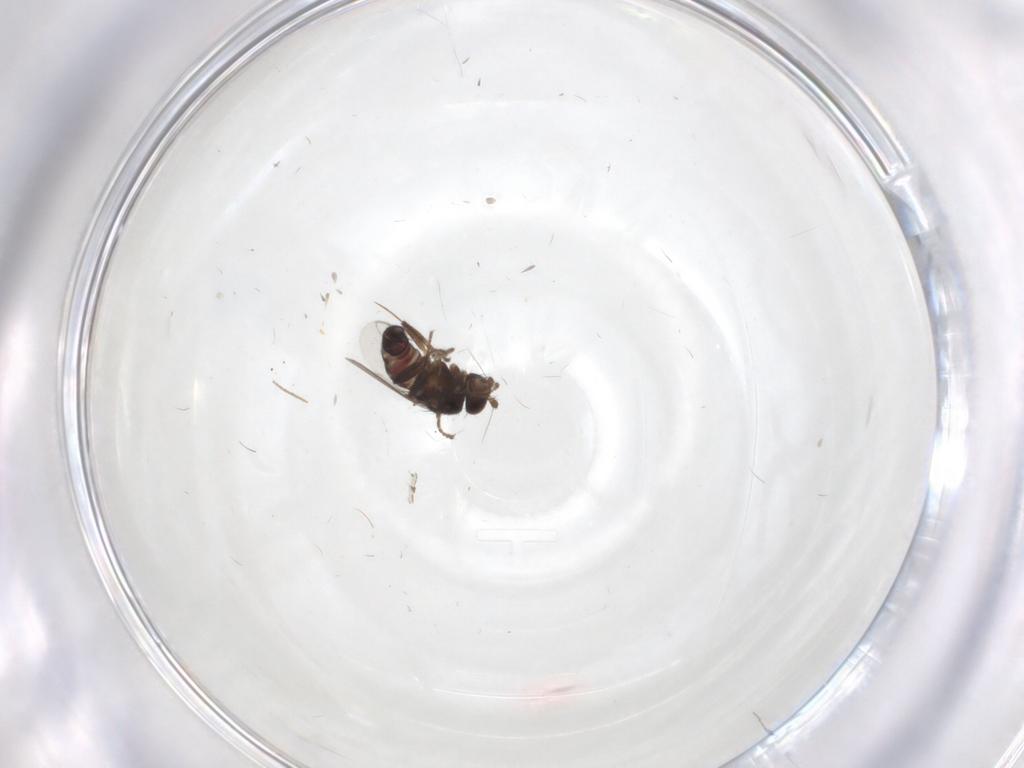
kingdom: Animalia
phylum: Arthropoda
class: Insecta
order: Diptera
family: Sphaeroceridae
